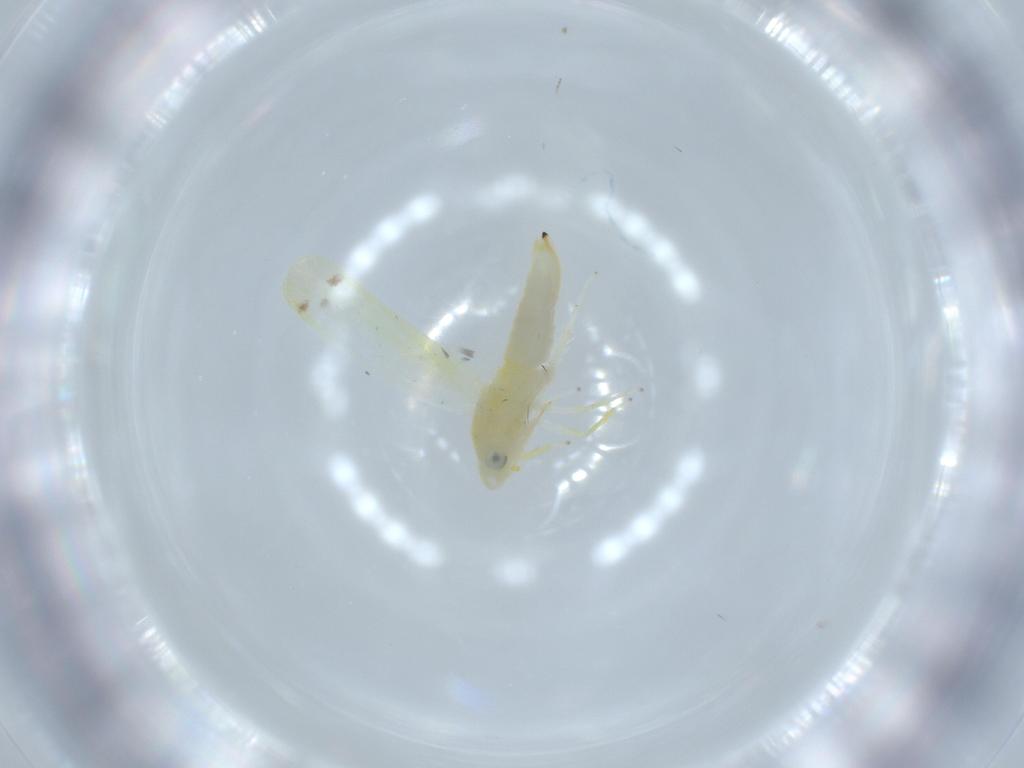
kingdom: Animalia
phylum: Arthropoda
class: Insecta
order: Hemiptera
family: Cicadellidae
